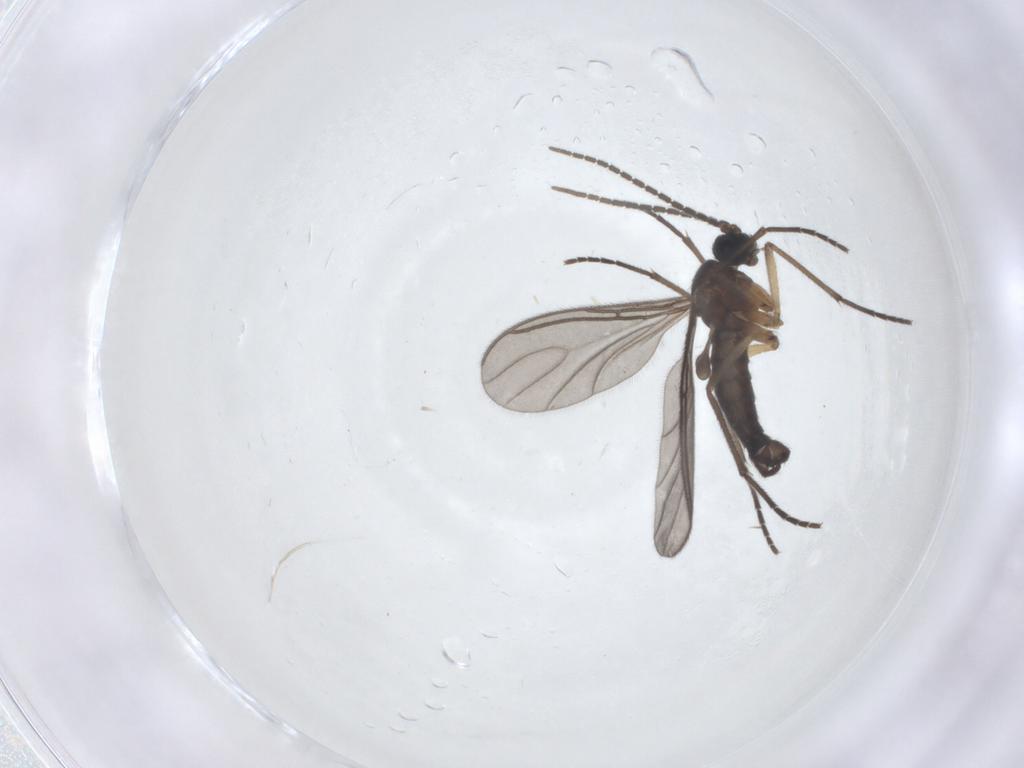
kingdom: Animalia
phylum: Arthropoda
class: Insecta
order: Diptera
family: Sciaridae
